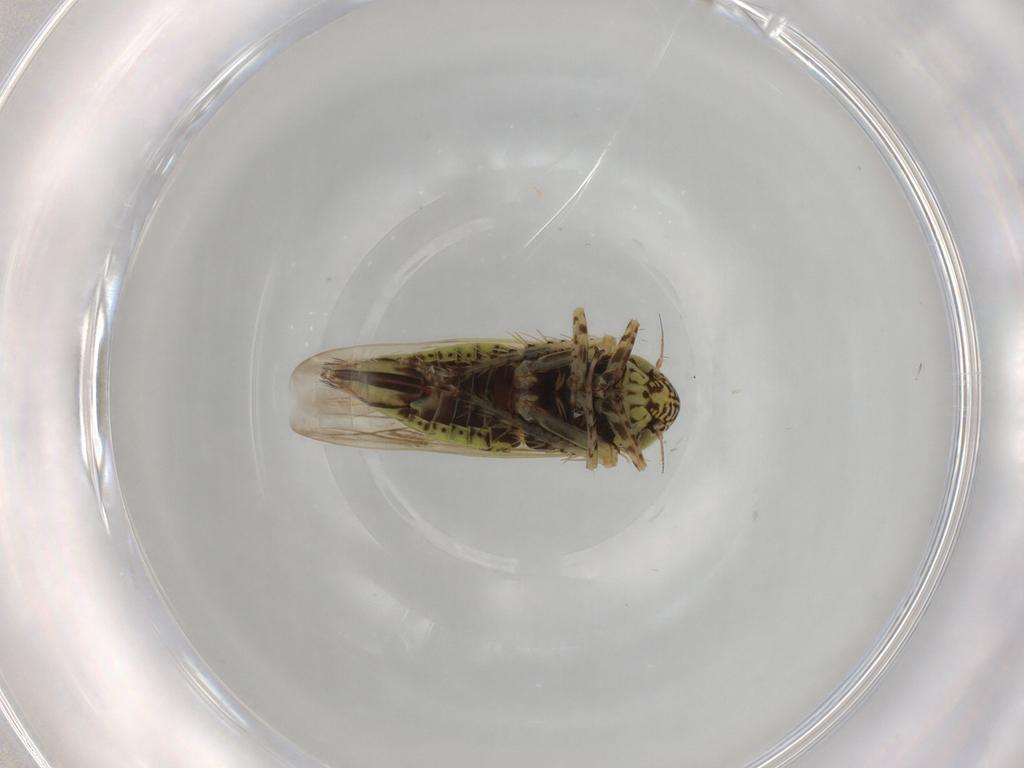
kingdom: Animalia
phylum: Arthropoda
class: Insecta
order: Hemiptera
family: Cicadellidae
